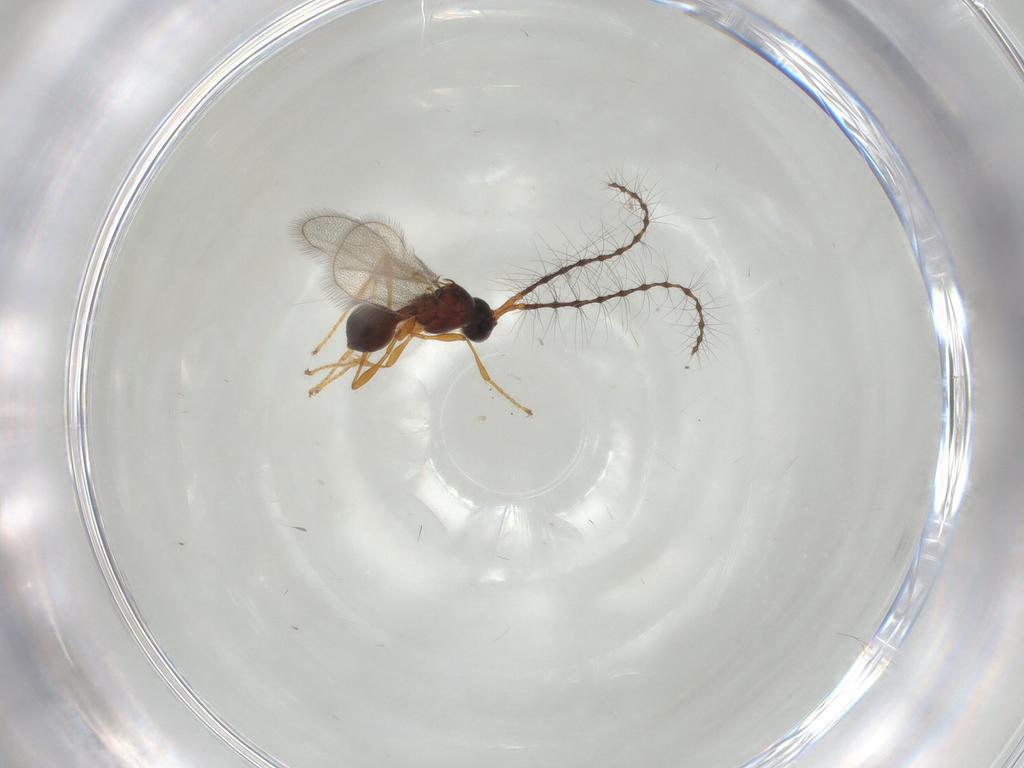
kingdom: Animalia
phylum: Arthropoda
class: Insecta
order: Hymenoptera
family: Diapriidae
